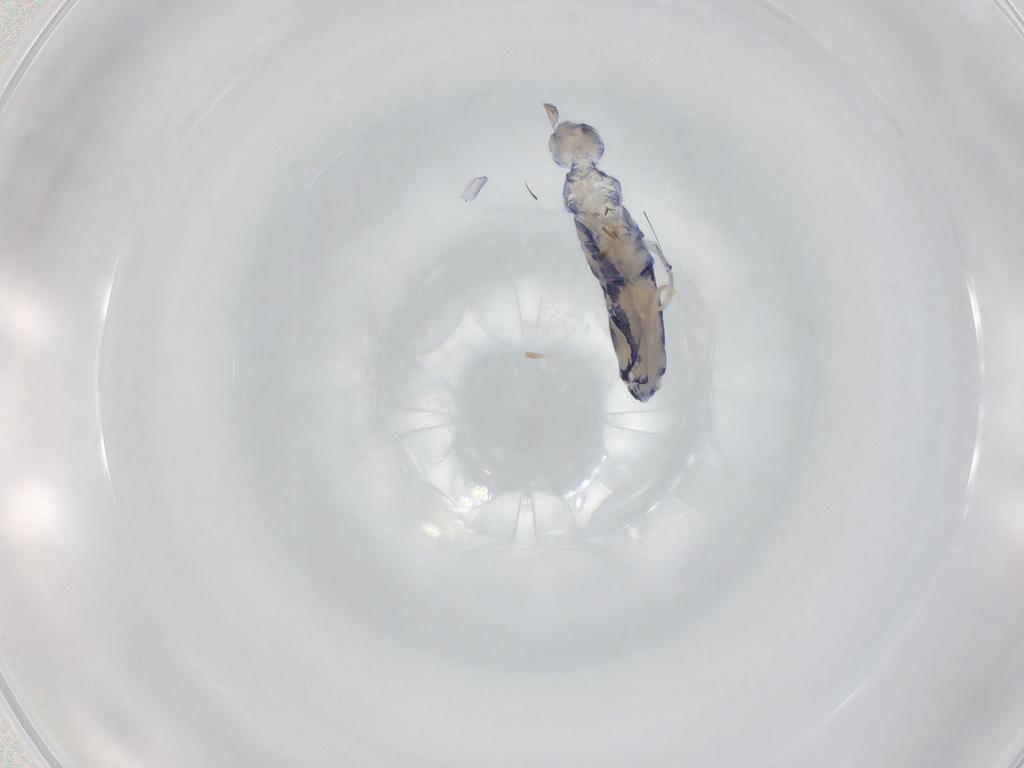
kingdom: Animalia
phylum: Arthropoda
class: Collembola
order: Entomobryomorpha
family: Entomobryidae
